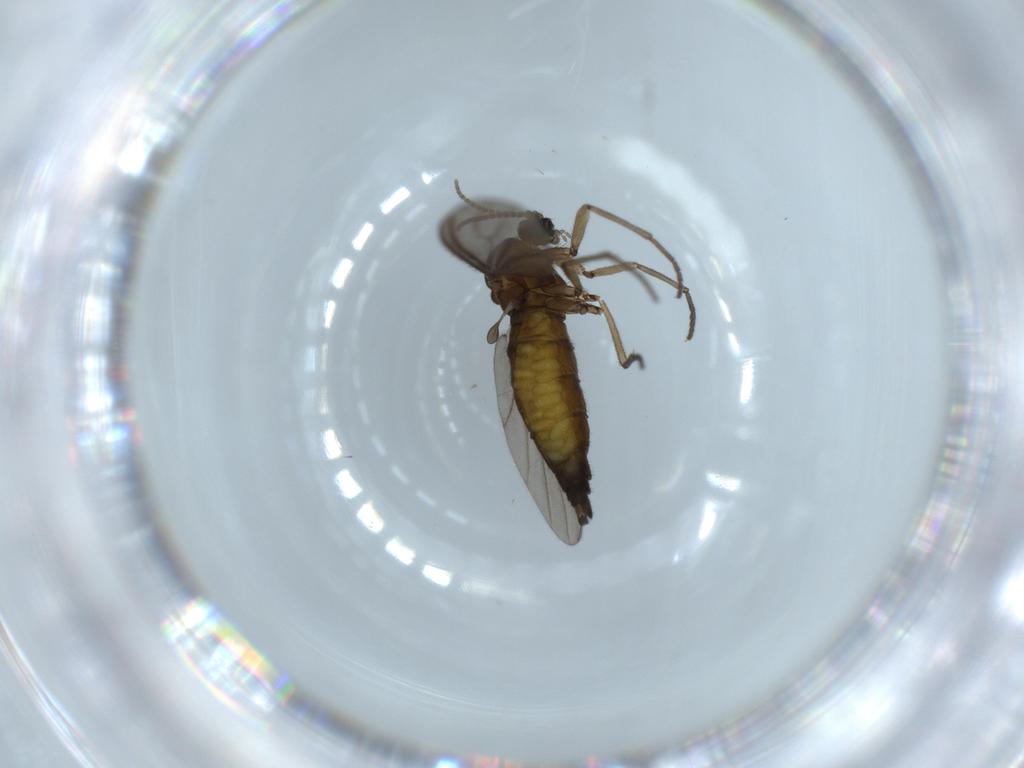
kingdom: Animalia
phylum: Arthropoda
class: Insecta
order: Diptera
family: Sciaridae
